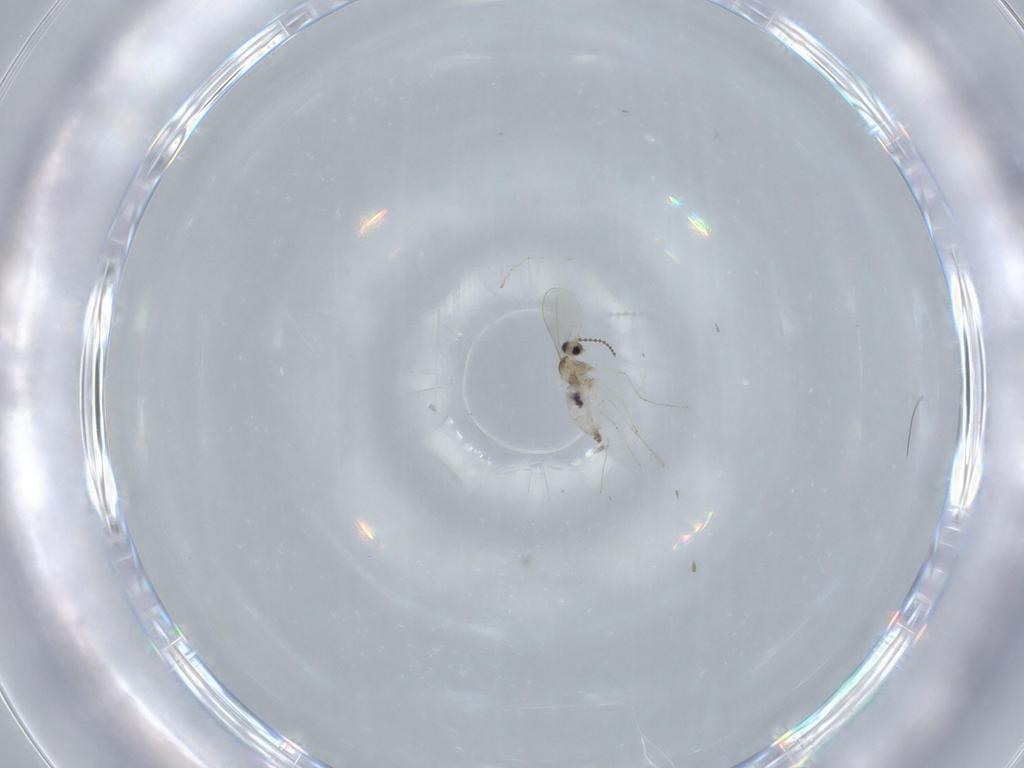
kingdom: Animalia
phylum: Arthropoda
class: Insecta
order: Diptera
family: Cecidomyiidae
